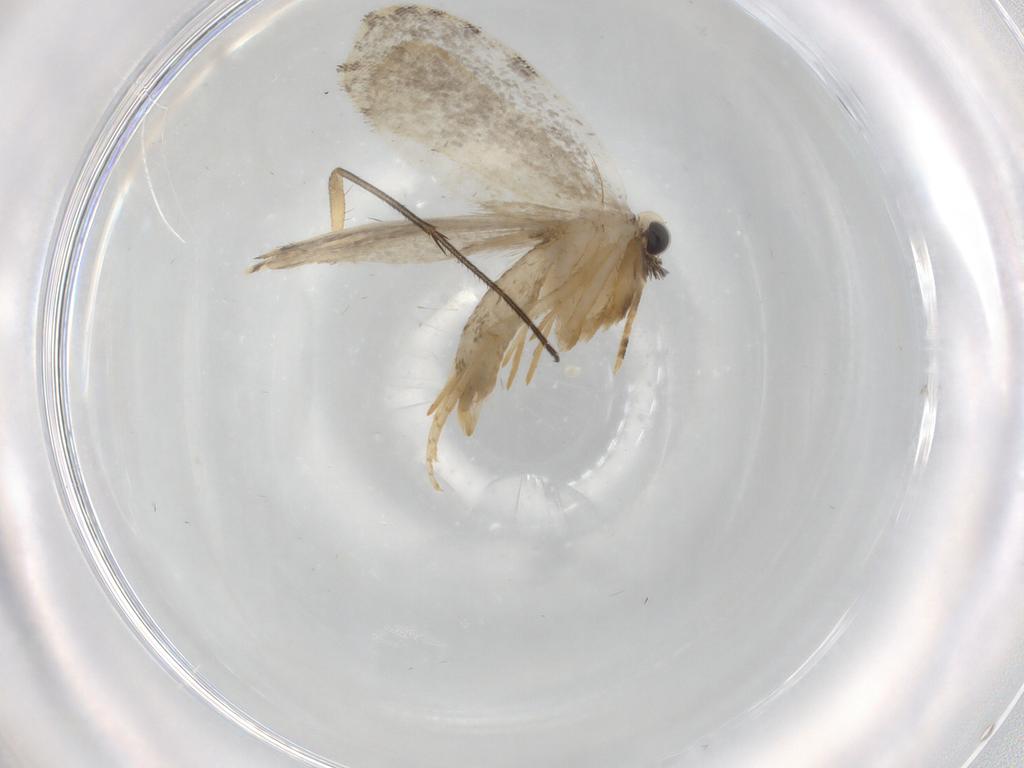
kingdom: Animalia
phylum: Arthropoda
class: Insecta
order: Lepidoptera
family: Psychidae
